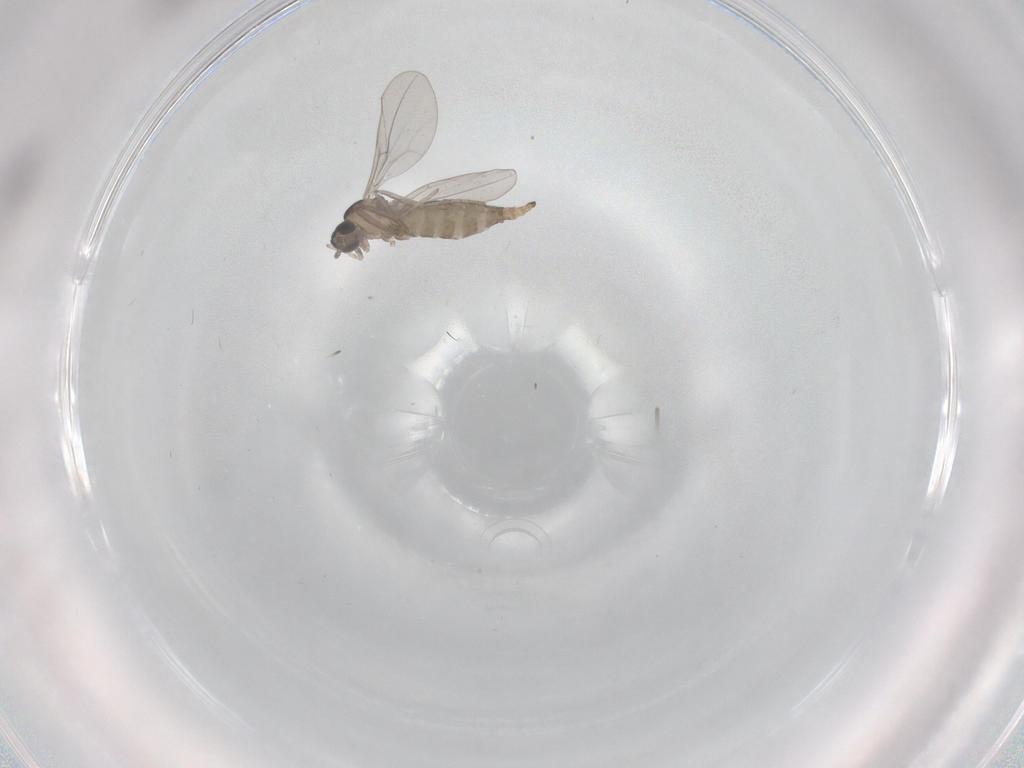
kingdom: Animalia
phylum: Arthropoda
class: Insecta
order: Diptera
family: Cecidomyiidae
